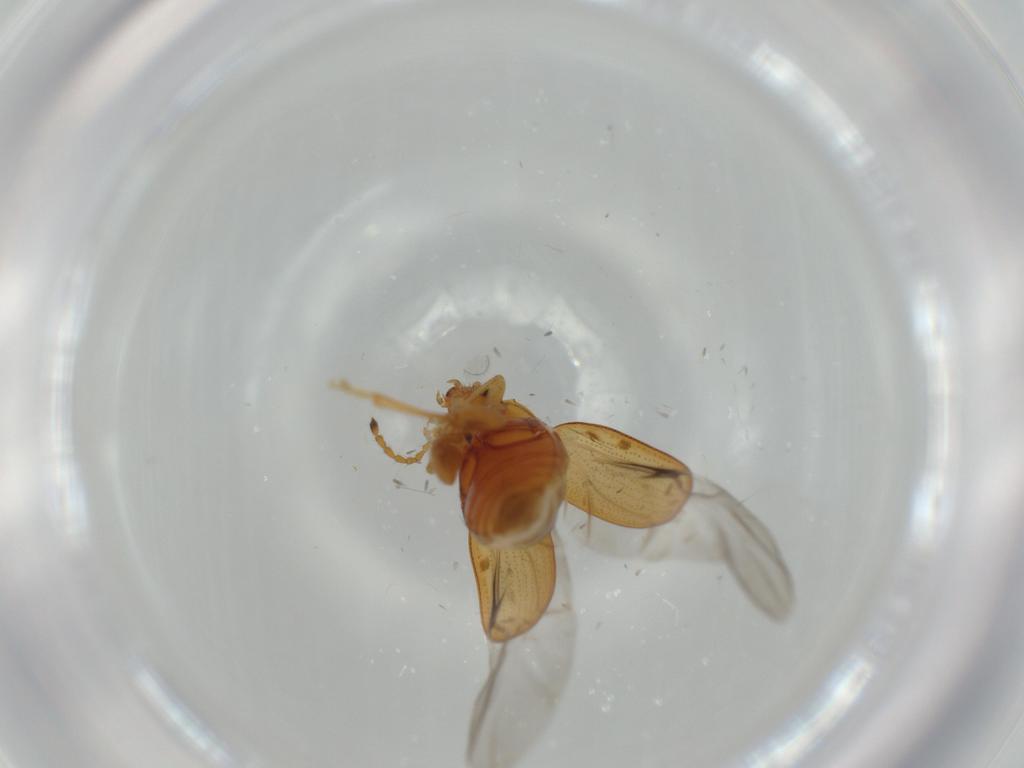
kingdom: Animalia
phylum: Arthropoda
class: Insecta
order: Coleoptera
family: Chrysomelidae
